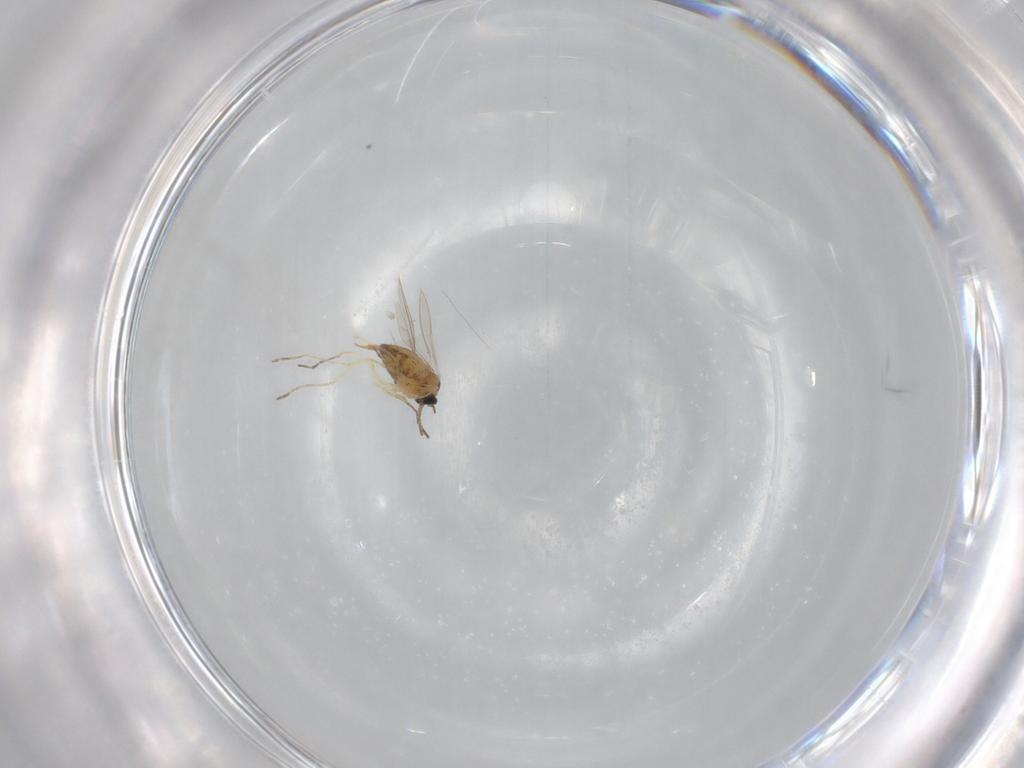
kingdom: Animalia
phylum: Arthropoda
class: Insecta
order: Diptera
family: Cecidomyiidae
